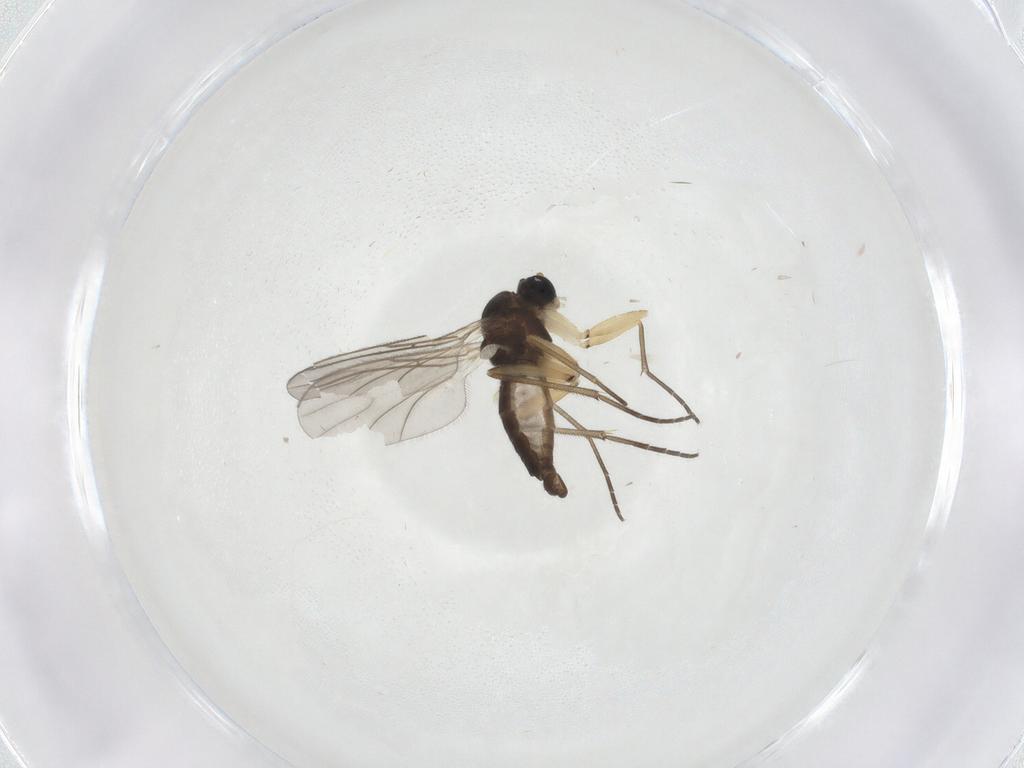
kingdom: Animalia
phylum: Arthropoda
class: Insecta
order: Diptera
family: Sciaridae
